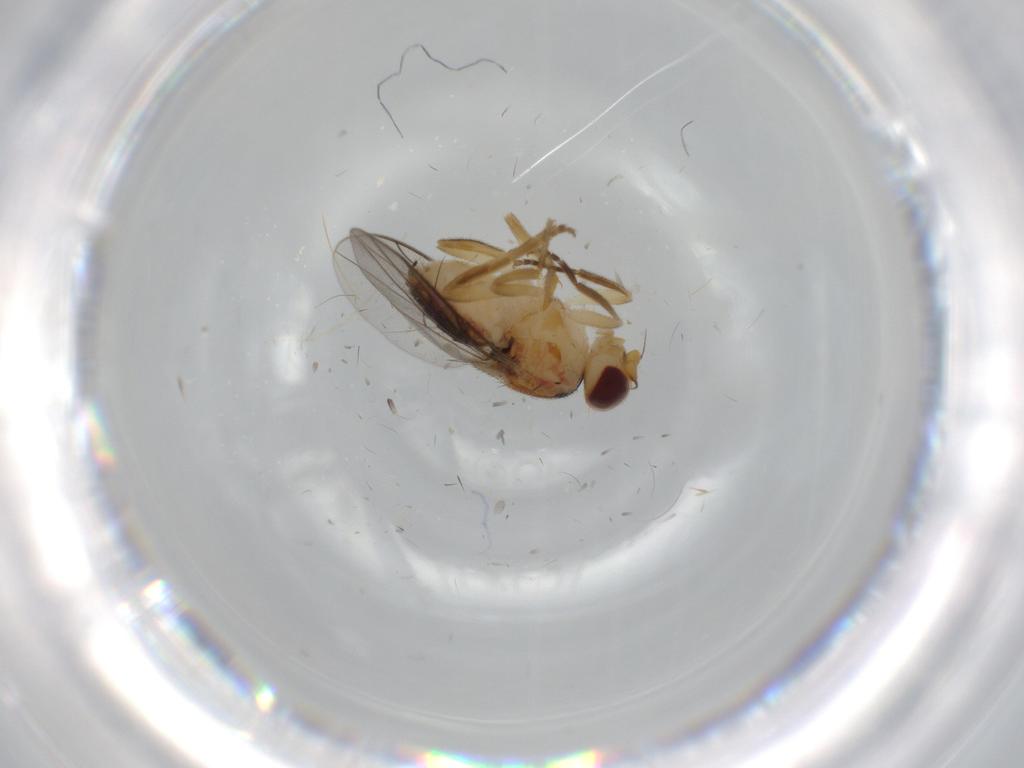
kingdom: Animalia
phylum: Arthropoda
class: Insecta
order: Diptera
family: Chloropidae
